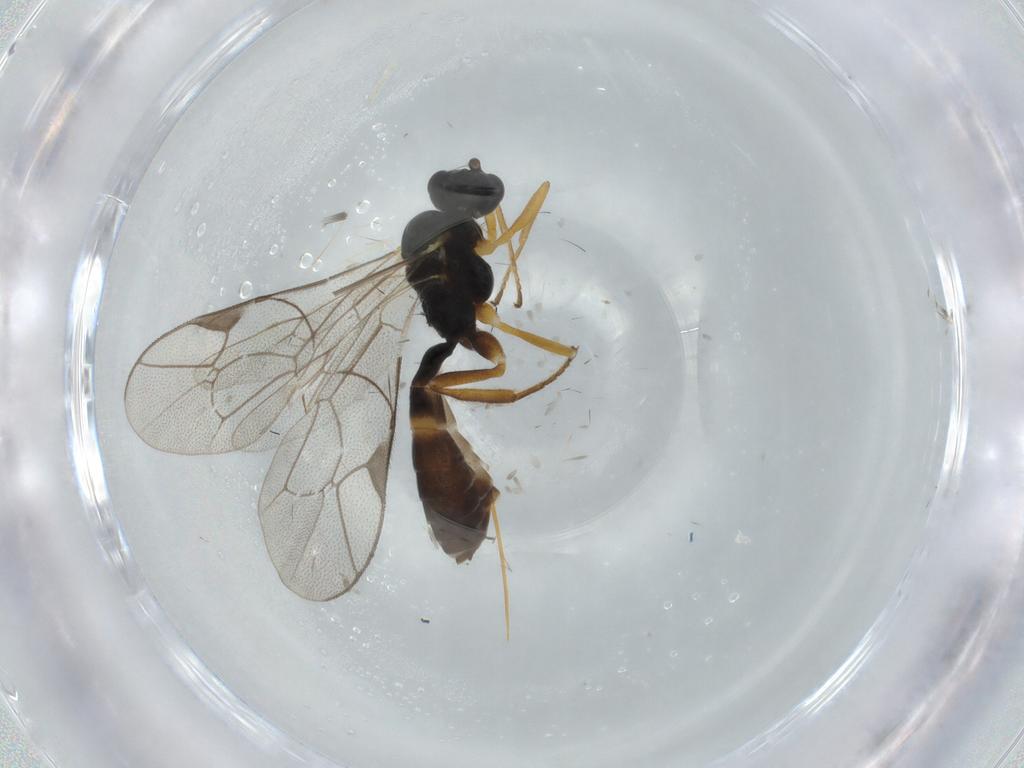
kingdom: Animalia
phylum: Arthropoda
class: Insecta
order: Hymenoptera
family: Ichneumonidae
